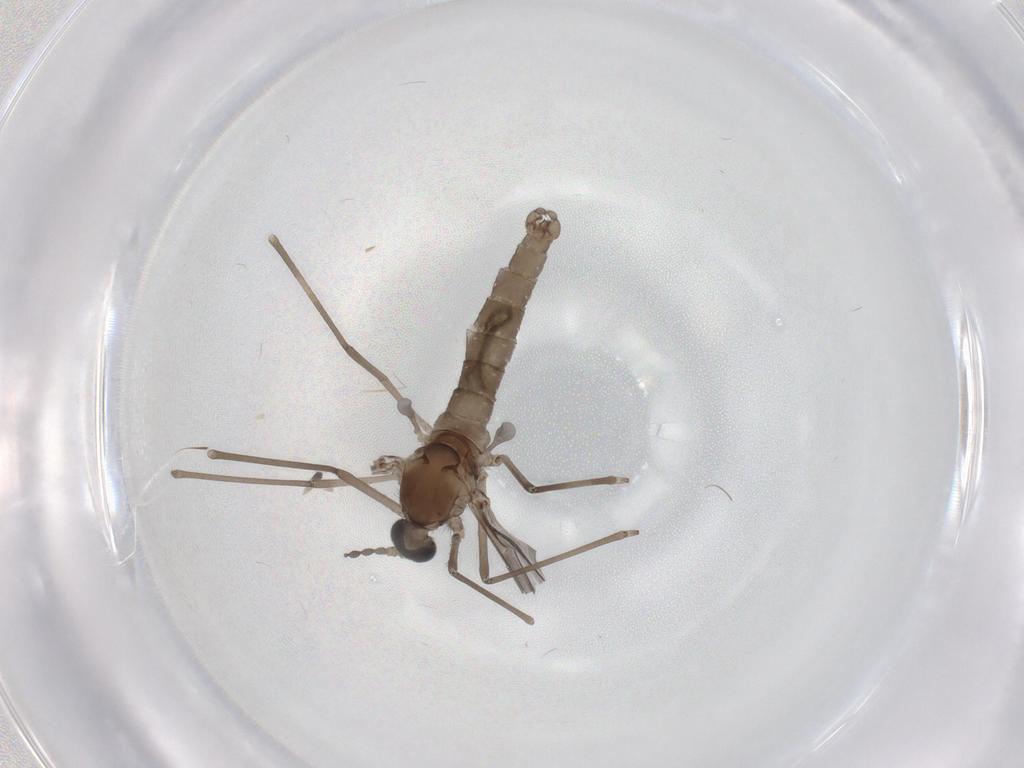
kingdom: Animalia
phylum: Arthropoda
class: Insecta
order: Diptera
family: Cecidomyiidae
